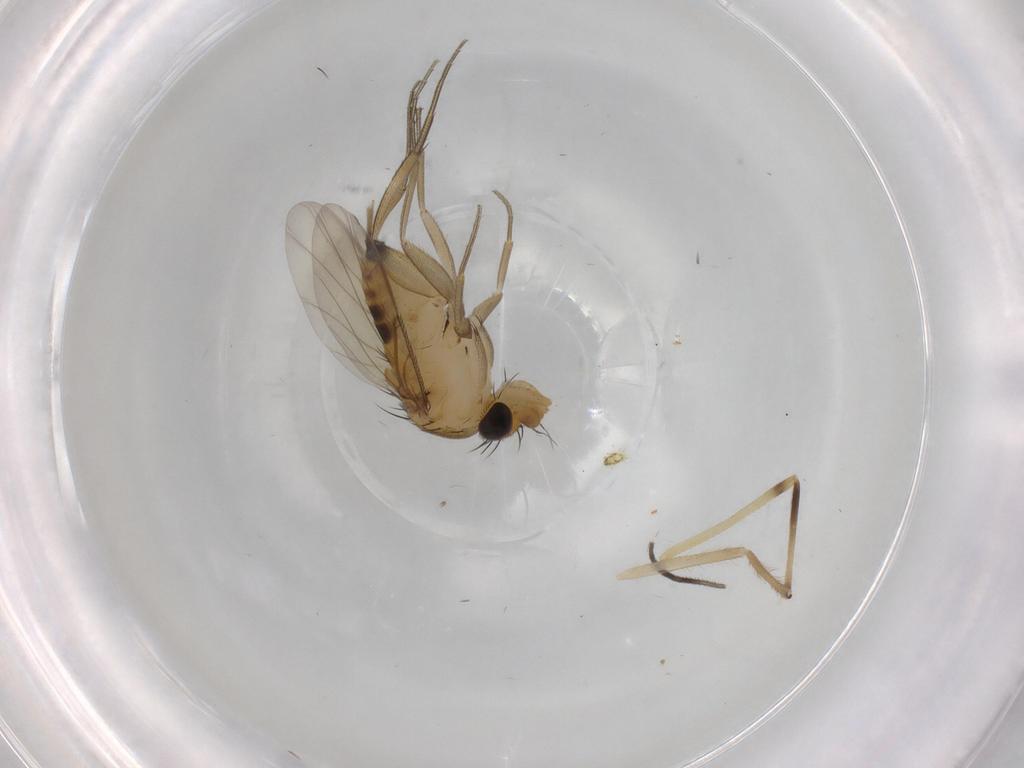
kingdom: Animalia
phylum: Arthropoda
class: Insecta
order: Diptera
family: Phoridae
